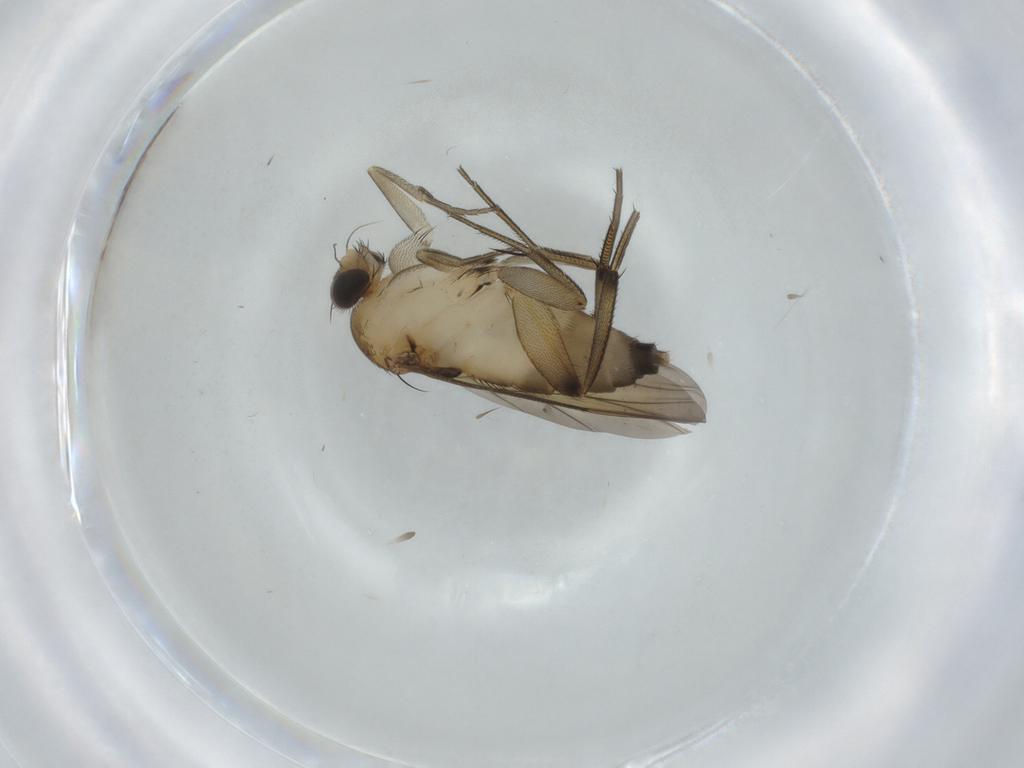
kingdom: Animalia
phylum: Arthropoda
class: Insecta
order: Diptera
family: Phoridae
